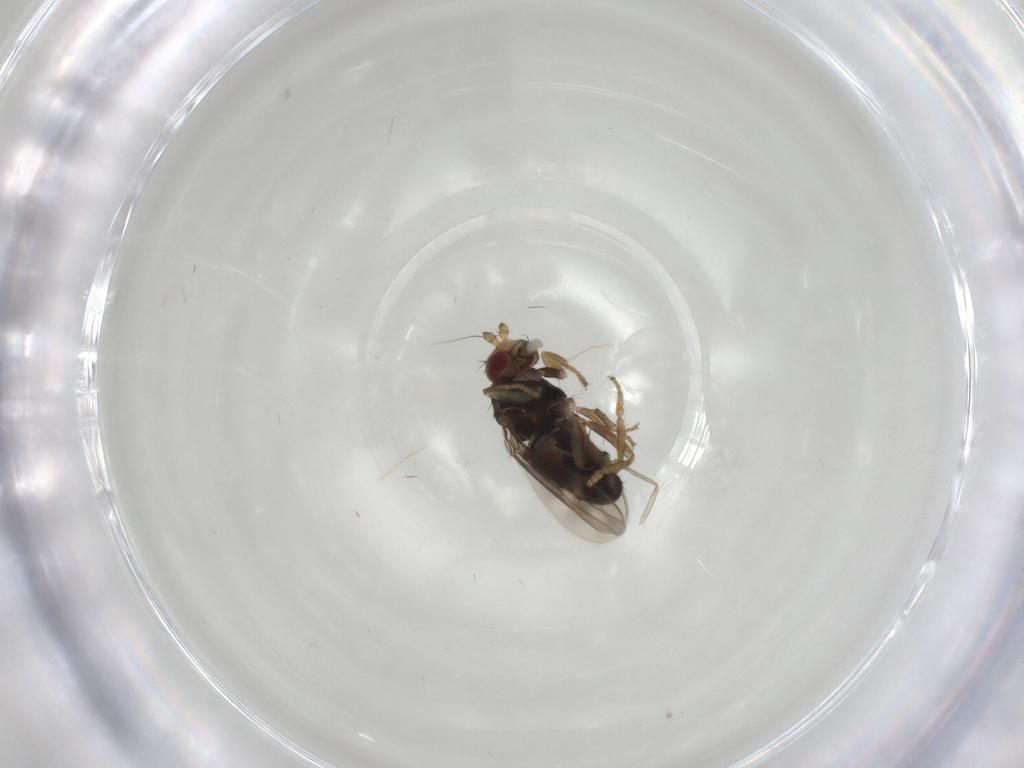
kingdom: Animalia
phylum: Arthropoda
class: Insecta
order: Diptera
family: Sphaeroceridae
